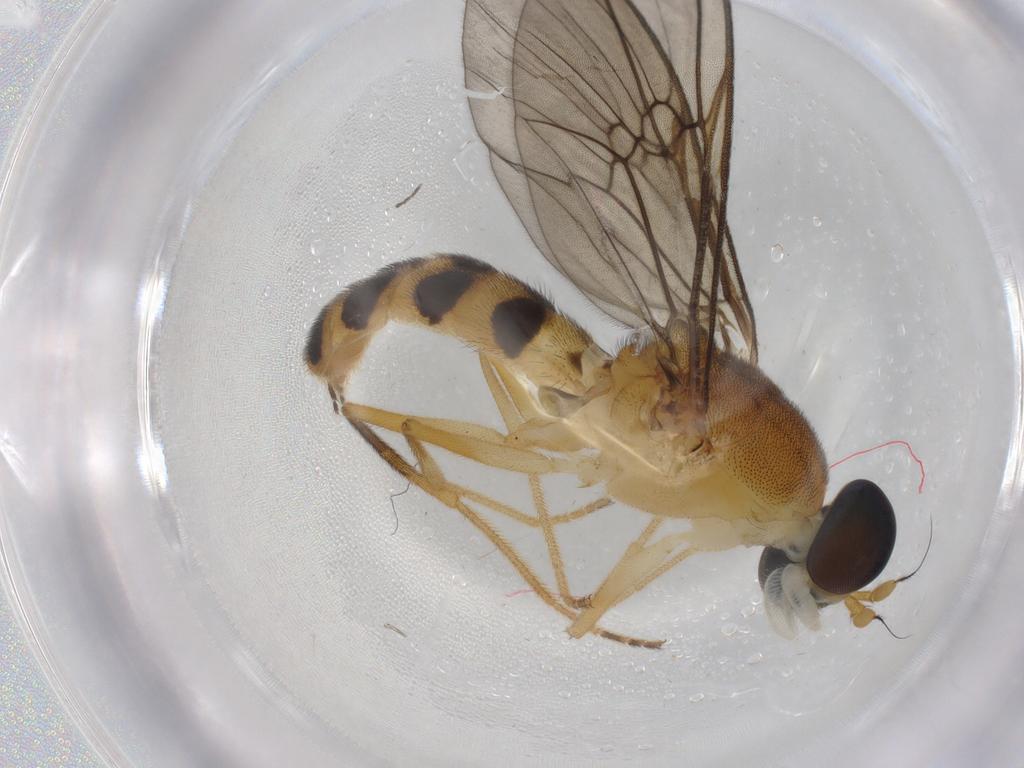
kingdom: Animalia
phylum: Arthropoda
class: Insecta
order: Diptera
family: Stratiomyidae
